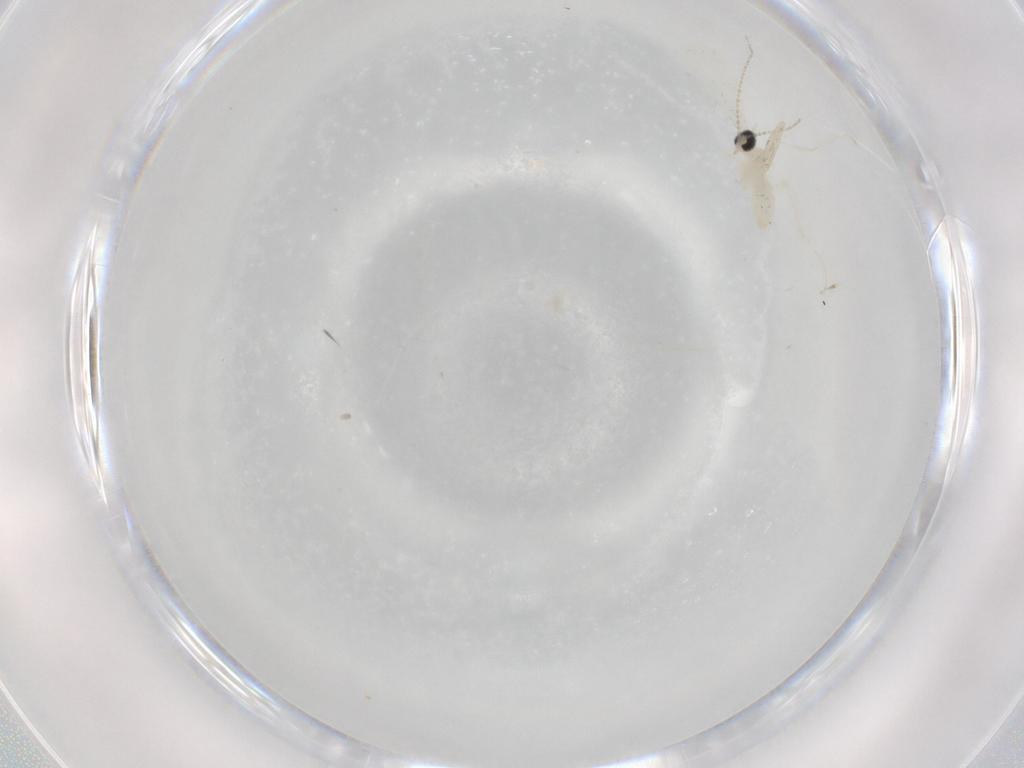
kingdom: Animalia
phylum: Arthropoda
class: Insecta
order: Diptera
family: Cecidomyiidae
